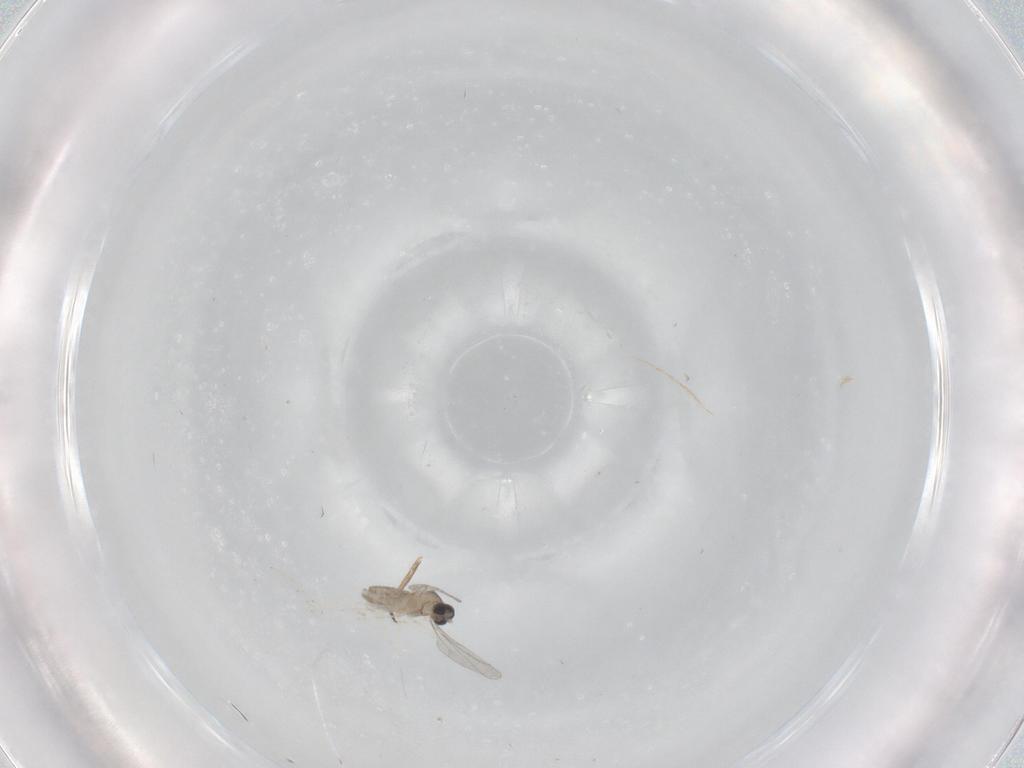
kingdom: Animalia
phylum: Arthropoda
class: Insecta
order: Diptera
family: Cecidomyiidae
